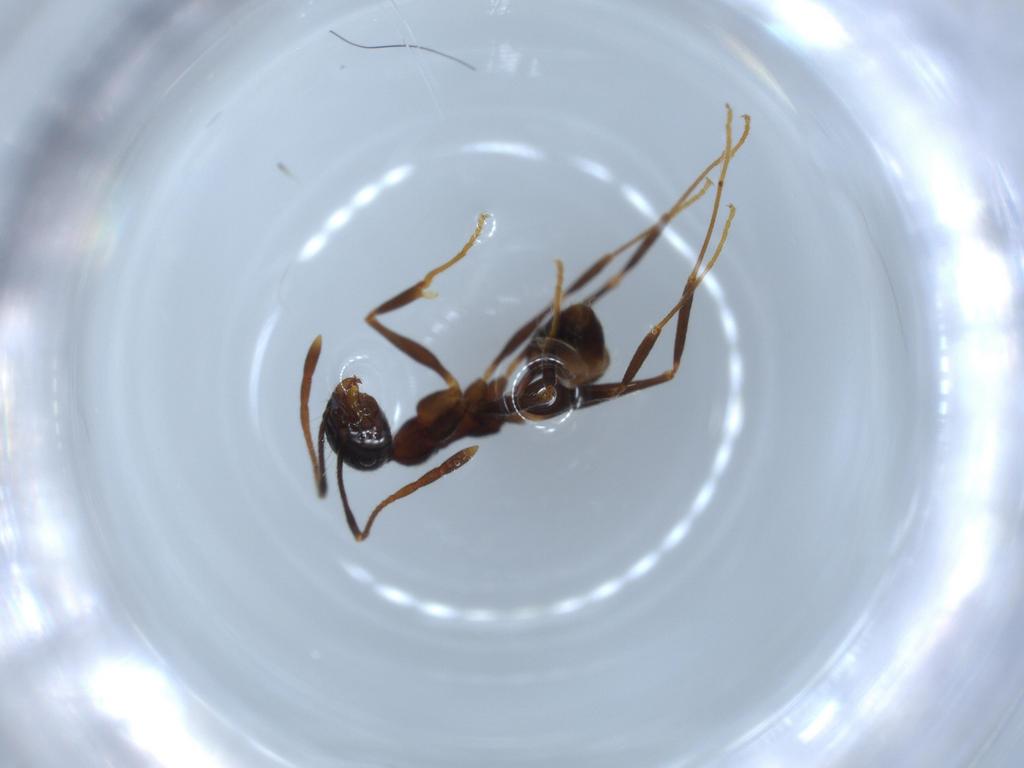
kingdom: Animalia
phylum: Arthropoda
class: Insecta
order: Hymenoptera
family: Formicidae
